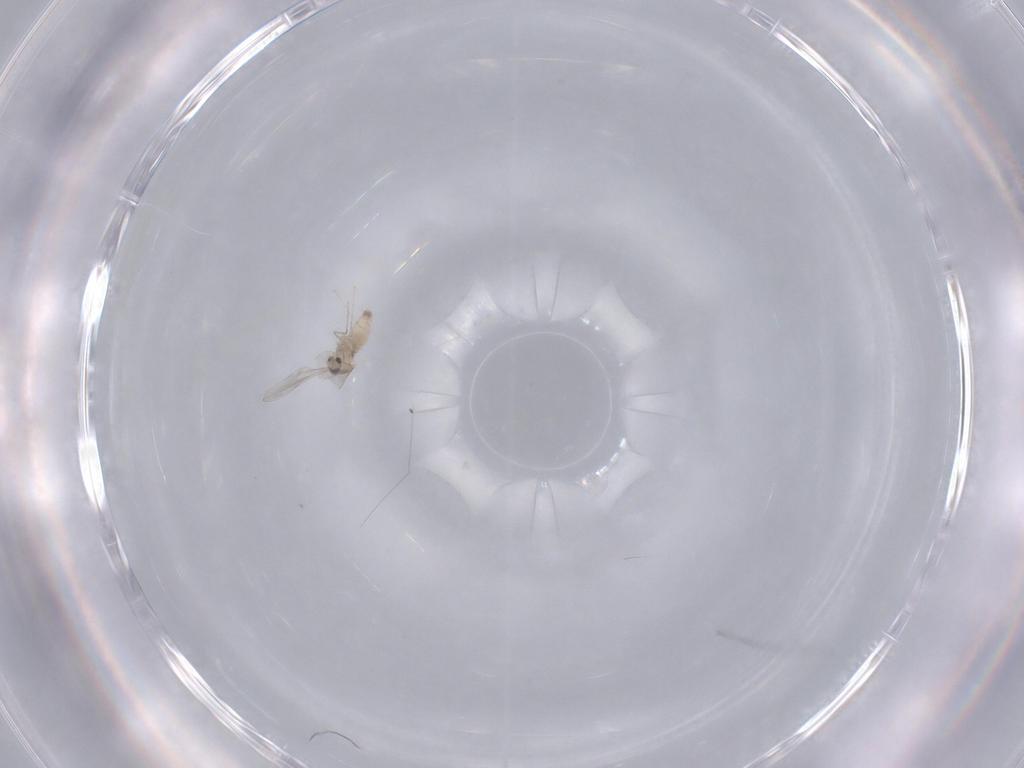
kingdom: Animalia
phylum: Arthropoda
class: Insecta
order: Diptera
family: Cecidomyiidae
